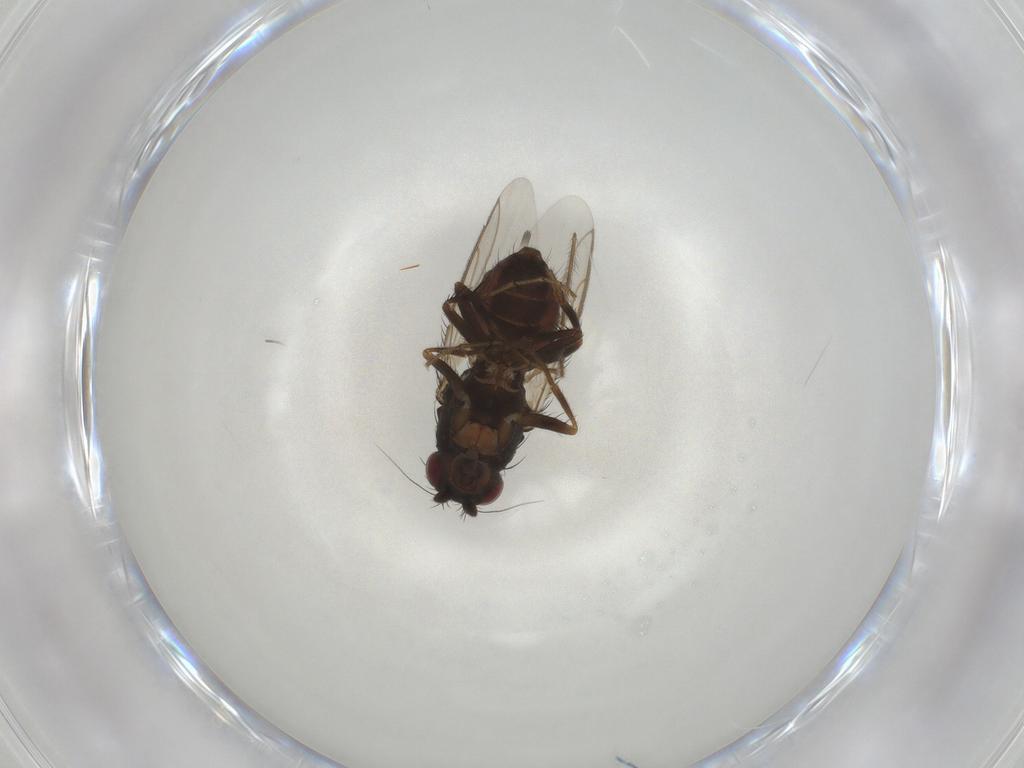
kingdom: Animalia
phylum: Arthropoda
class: Insecta
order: Diptera
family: Sphaeroceridae
